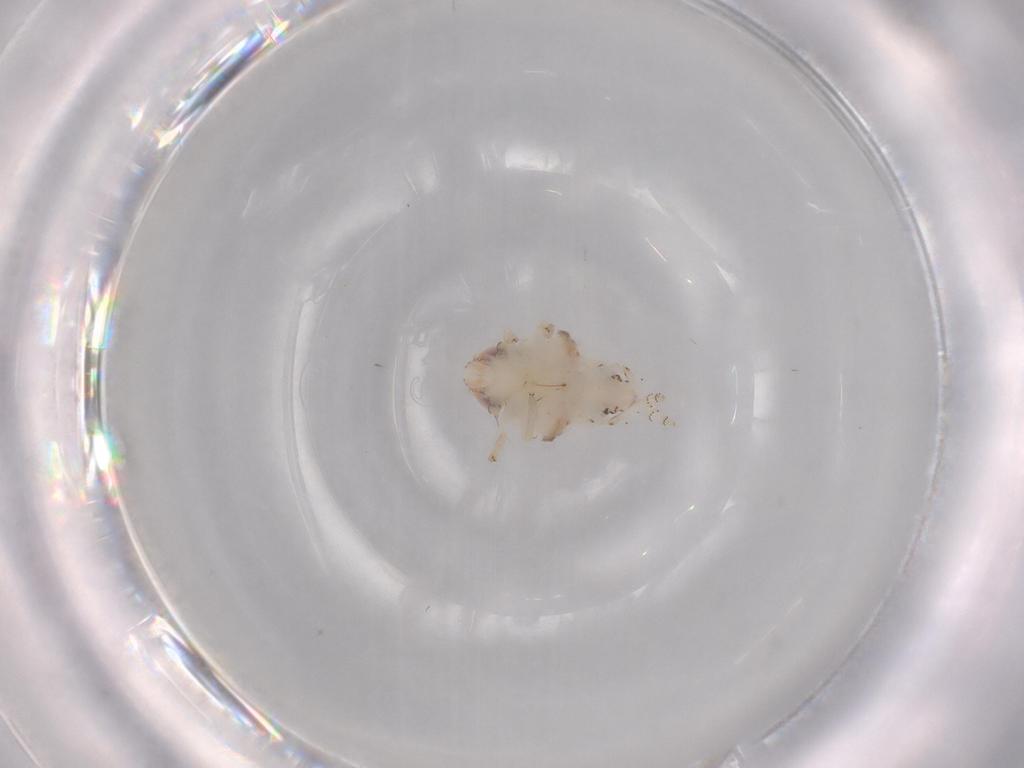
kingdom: Animalia
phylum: Arthropoda
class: Insecta
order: Hemiptera
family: Nogodinidae
